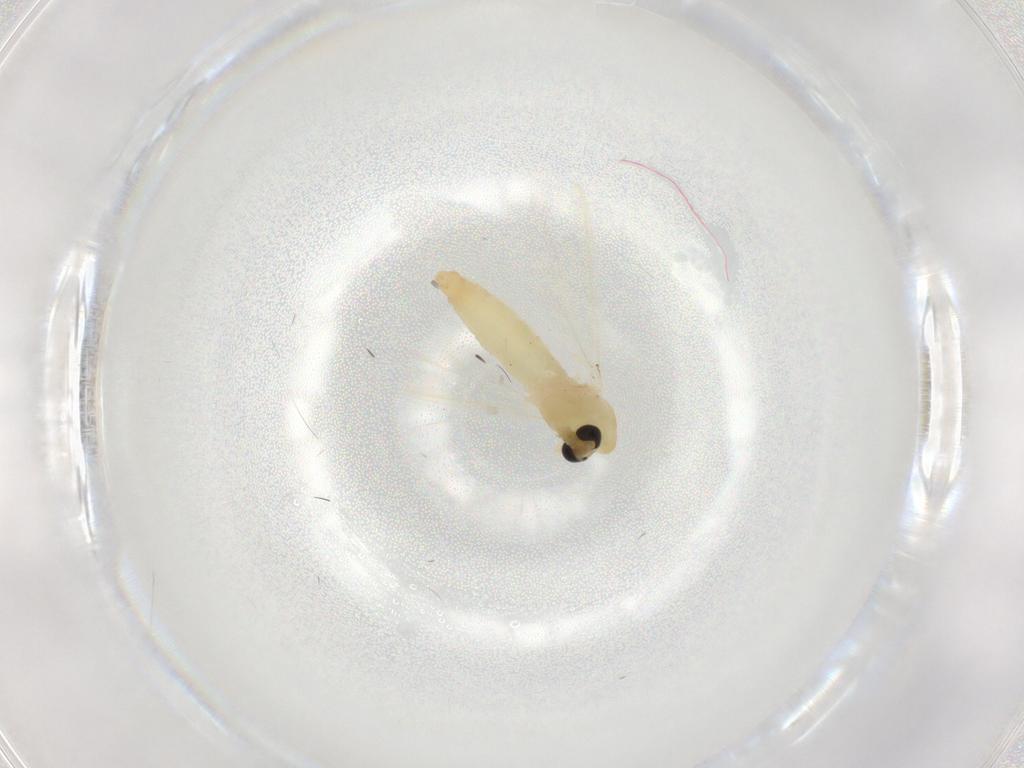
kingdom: Animalia
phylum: Arthropoda
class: Insecta
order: Diptera
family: Chironomidae
